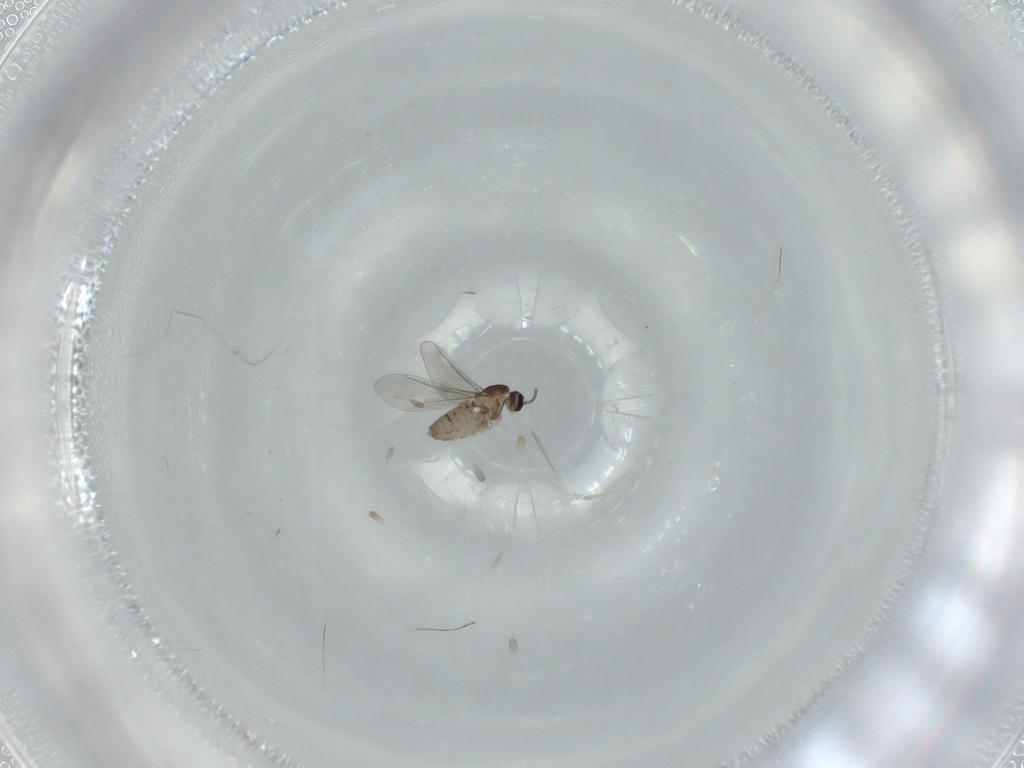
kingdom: Animalia
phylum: Arthropoda
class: Insecta
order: Diptera
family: Cecidomyiidae
